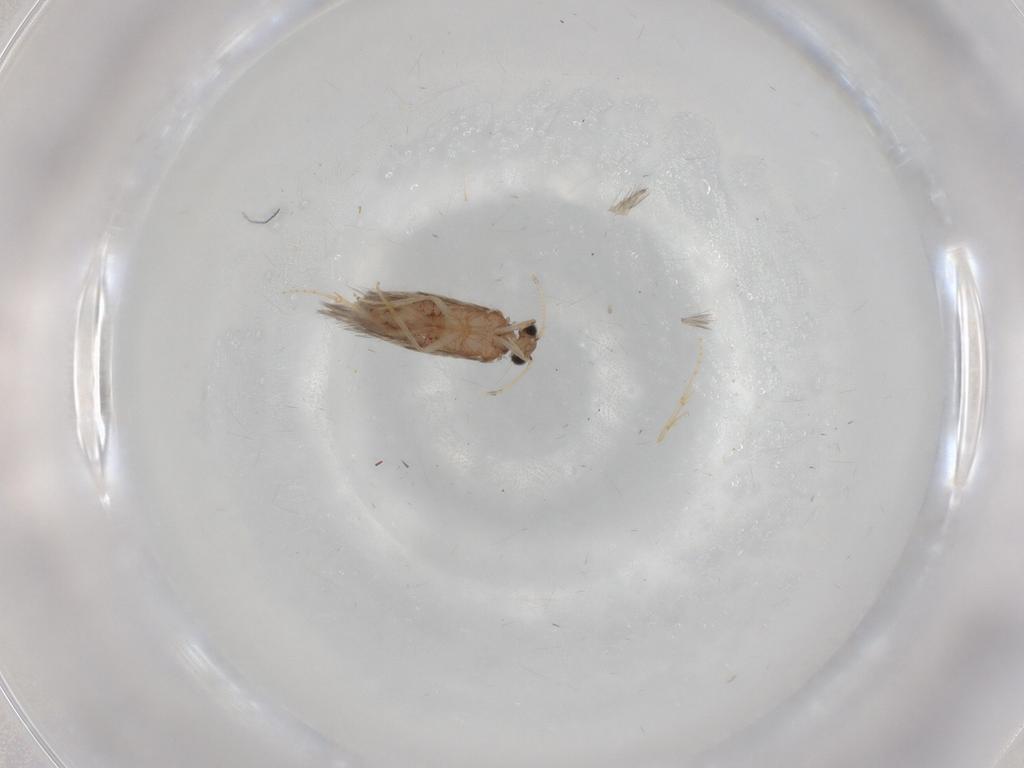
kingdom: Animalia
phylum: Arthropoda
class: Insecta
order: Trichoptera
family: Hydroptilidae
